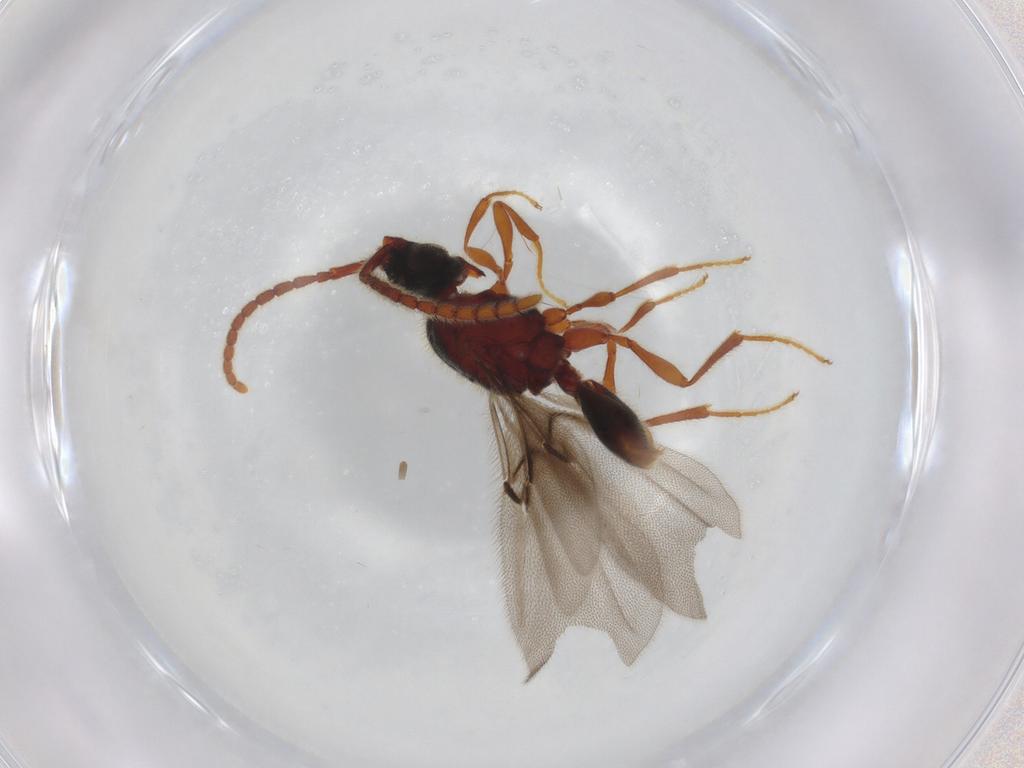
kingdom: Animalia
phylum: Arthropoda
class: Insecta
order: Hymenoptera
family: Diapriidae
